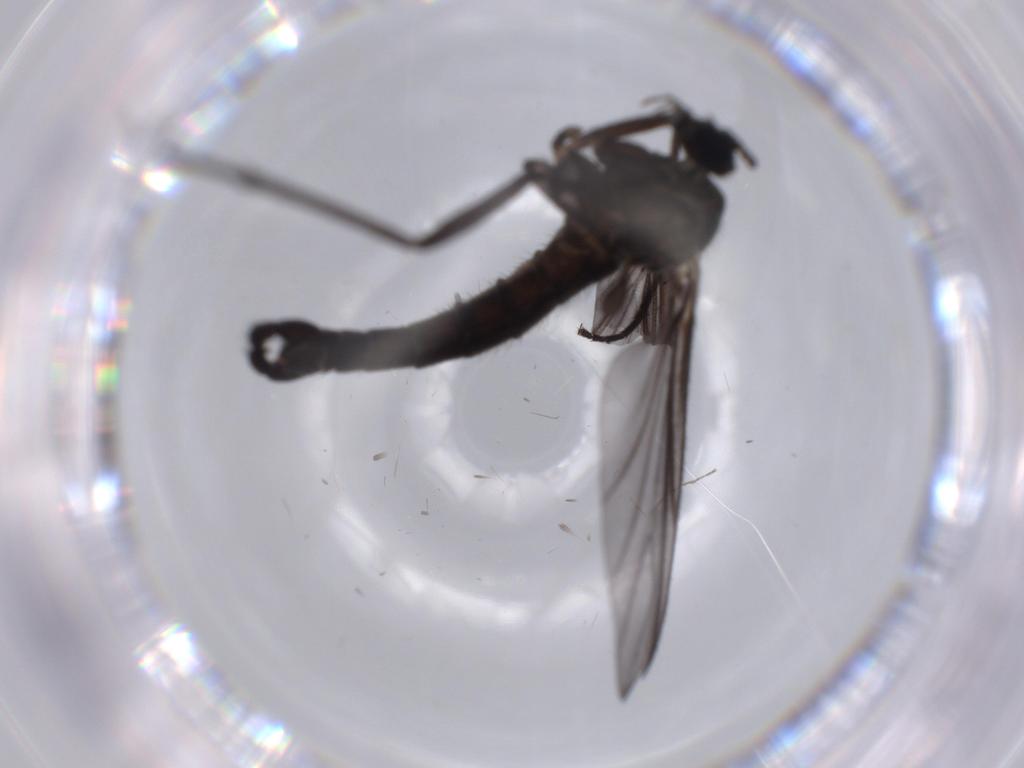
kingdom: Animalia
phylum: Arthropoda
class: Insecta
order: Diptera
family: Ceratopogonidae
